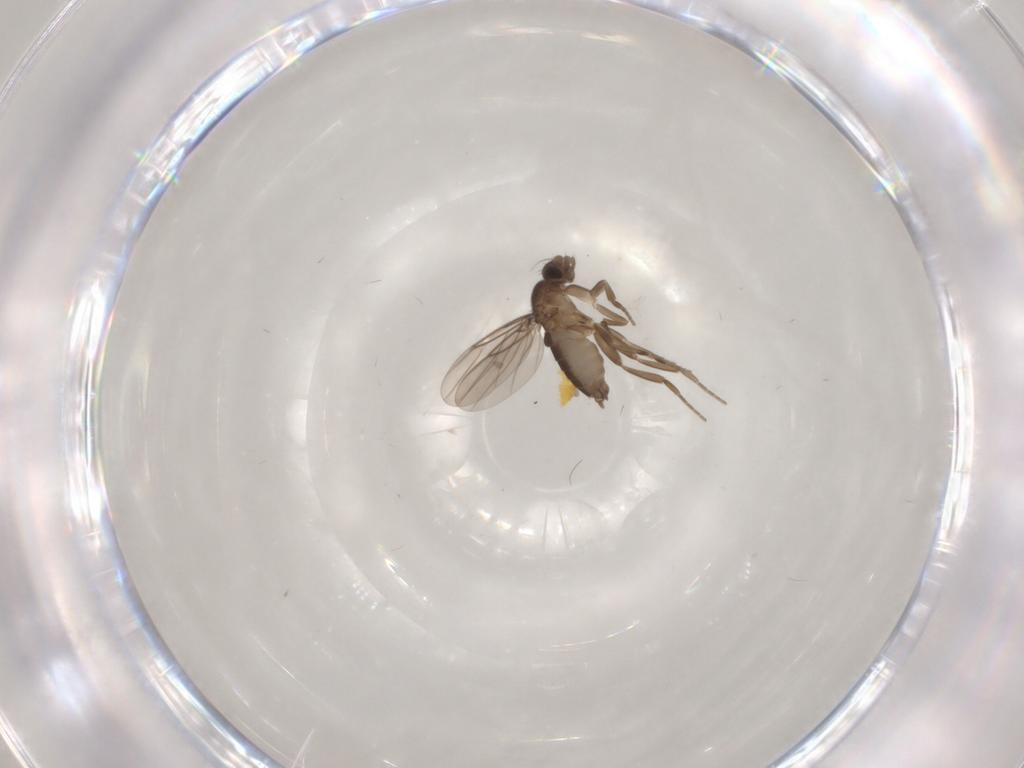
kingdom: Animalia
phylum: Arthropoda
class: Insecta
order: Diptera
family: Phoridae
